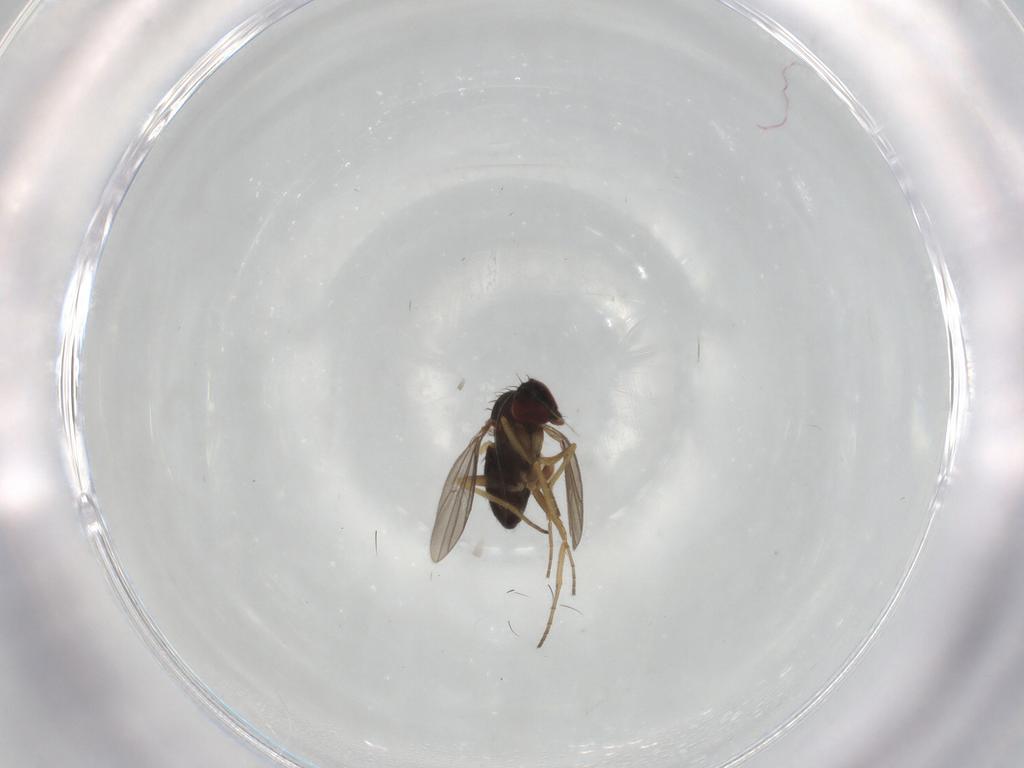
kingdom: Animalia
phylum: Arthropoda
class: Insecta
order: Diptera
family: Dolichopodidae
